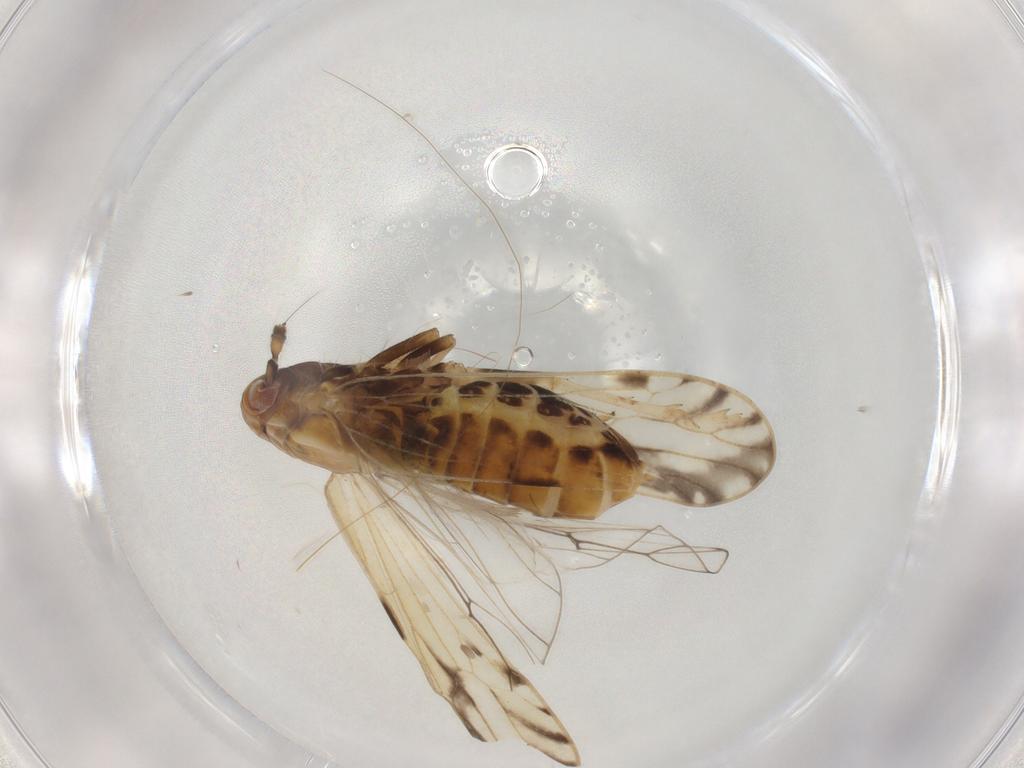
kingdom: Animalia
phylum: Arthropoda
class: Insecta
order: Hemiptera
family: Delphacidae
